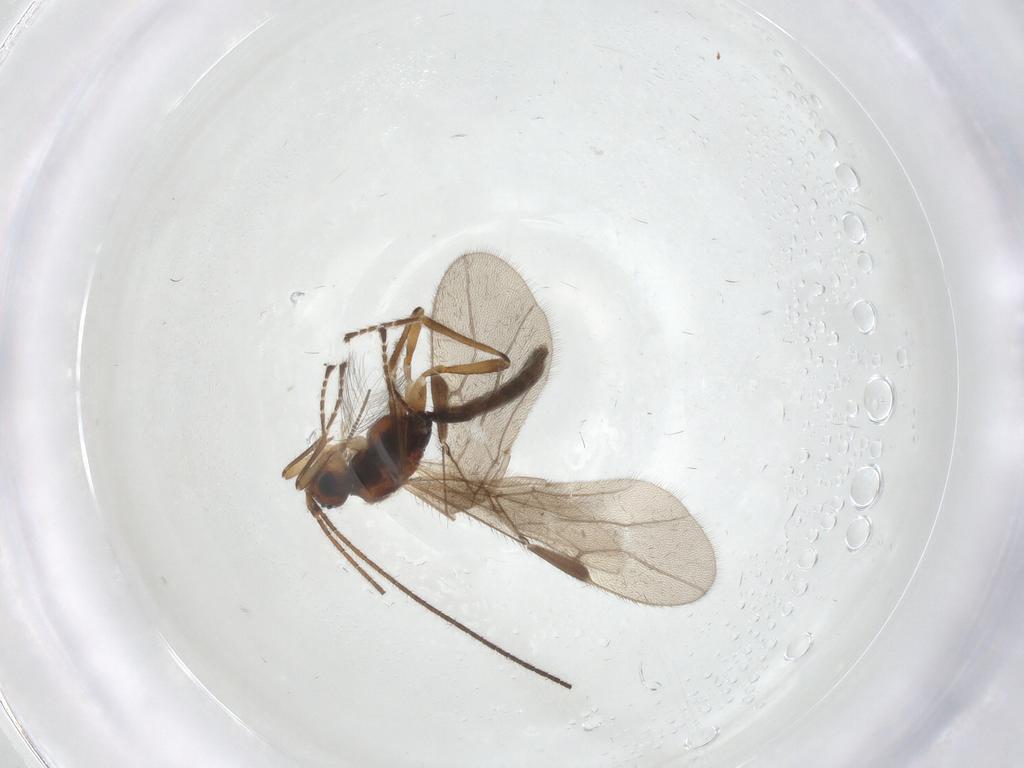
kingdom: Animalia
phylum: Arthropoda
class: Insecta
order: Hymenoptera
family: Braconidae
